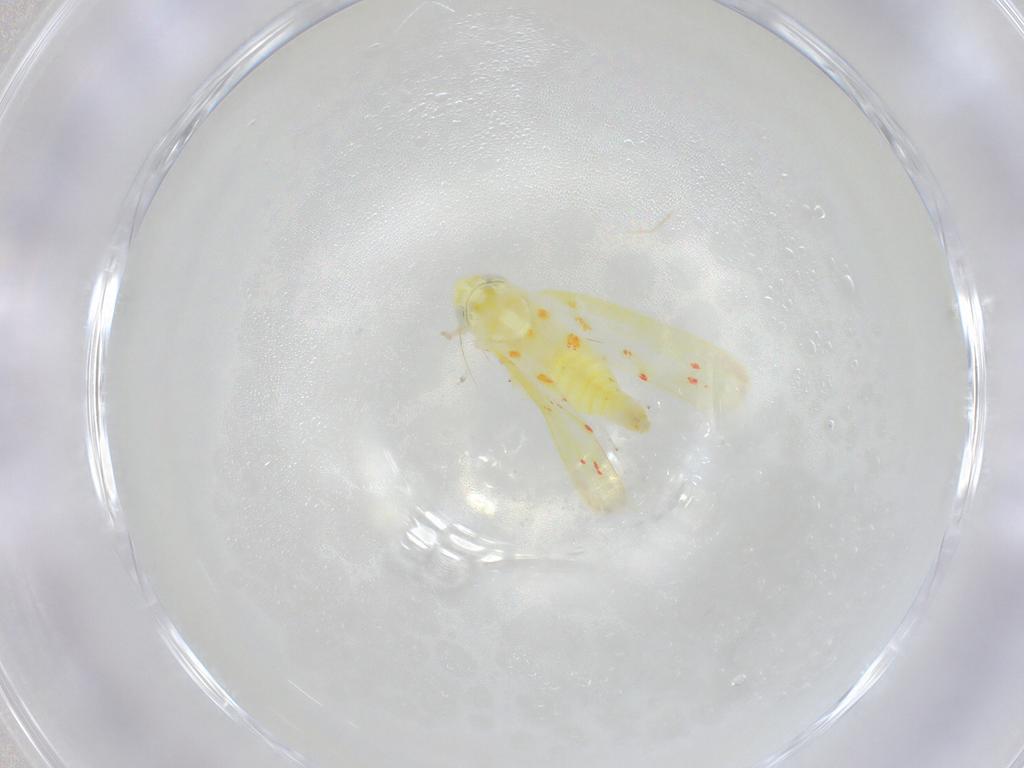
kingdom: Animalia
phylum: Arthropoda
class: Insecta
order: Hemiptera
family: Cicadellidae
